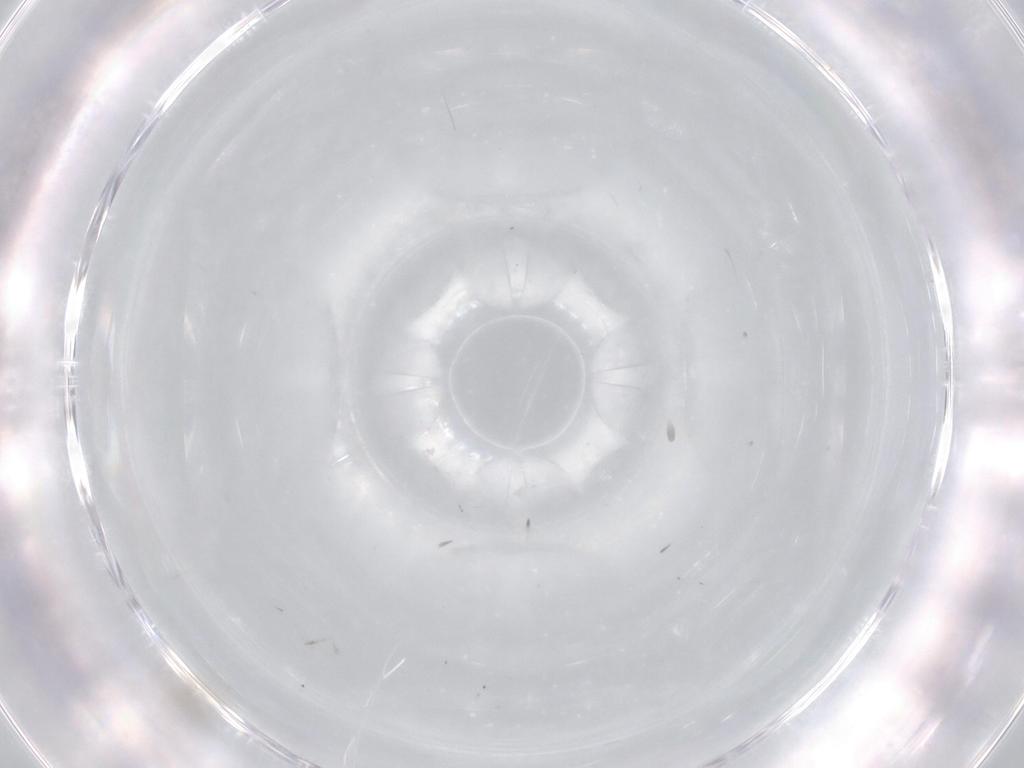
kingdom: Animalia
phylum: Arthropoda
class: Insecta
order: Diptera
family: Cecidomyiidae
